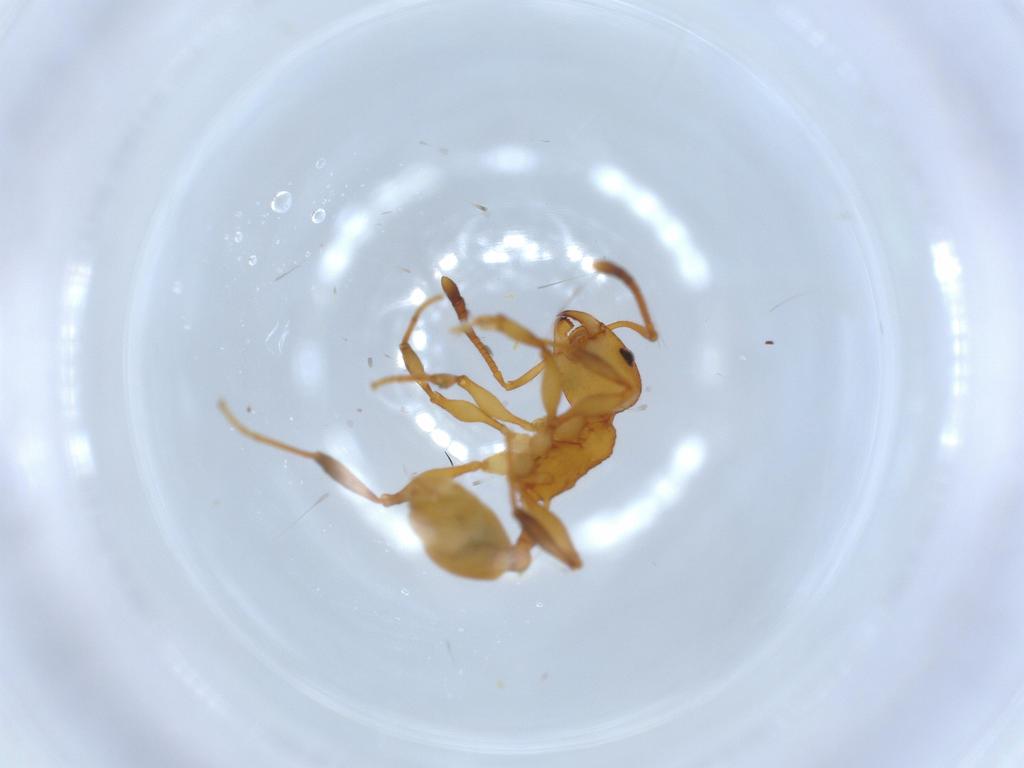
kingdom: Animalia
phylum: Arthropoda
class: Insecta
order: Hymenoptera
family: Formicidae
